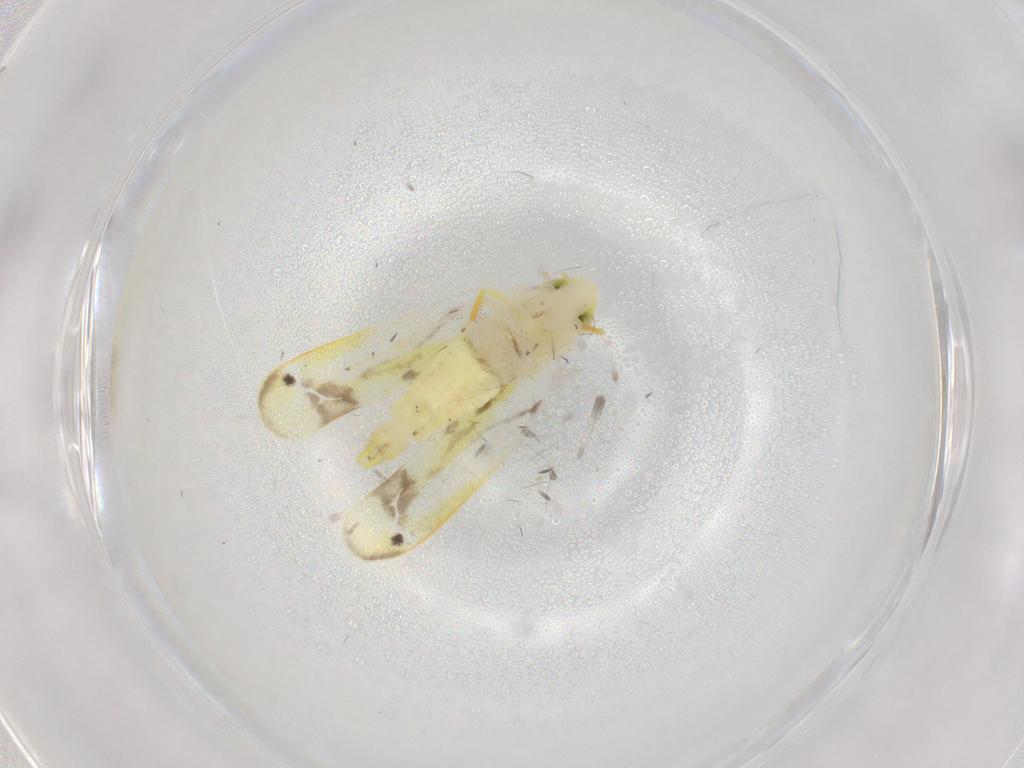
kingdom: Animalia
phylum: Arthropoda
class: Insecta
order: Hemiptera
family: Cicadellidae
